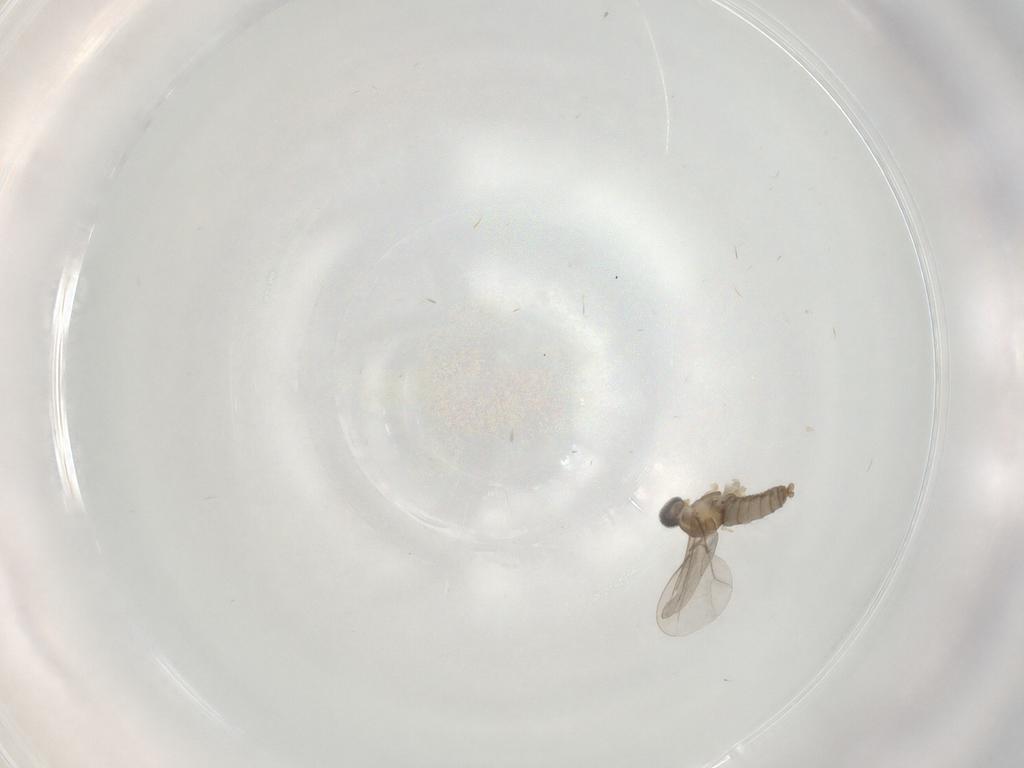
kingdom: Animalia
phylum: Arthropoda
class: Insecta
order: Diptera
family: Cecidomyiidae
